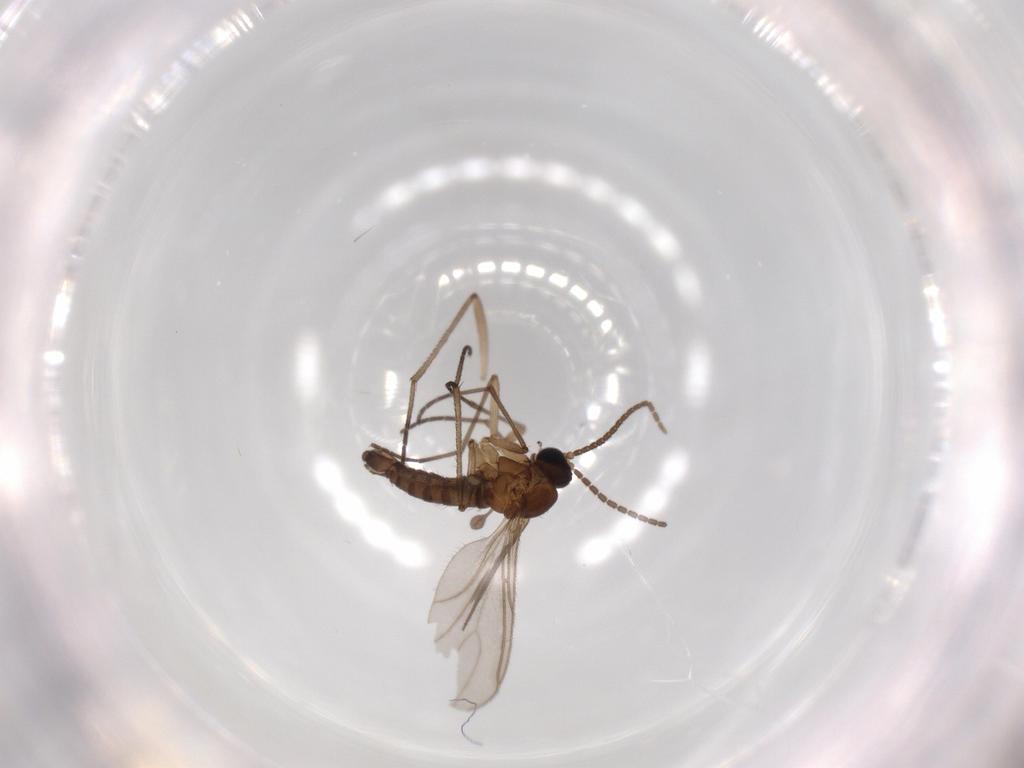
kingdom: Animalia
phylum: Arthropoda
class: Insecta
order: Diptera
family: Sciaridae
